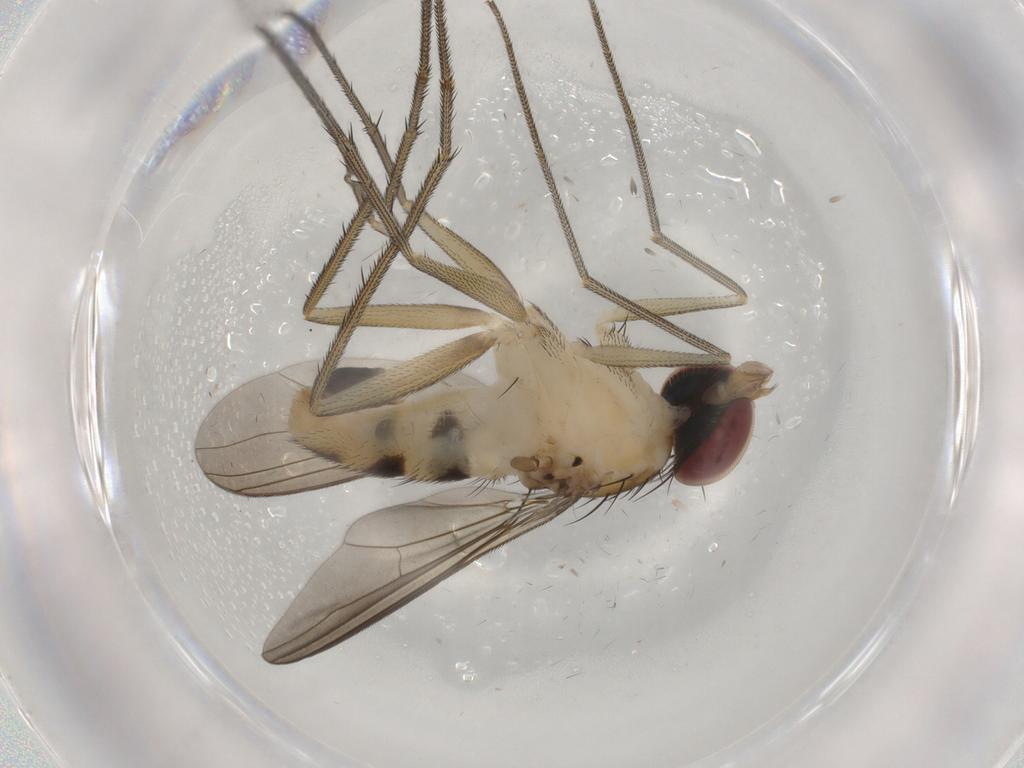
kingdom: Animalia
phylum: Arthropoda
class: Insecta
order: Diptera
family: Dolichopodidae
